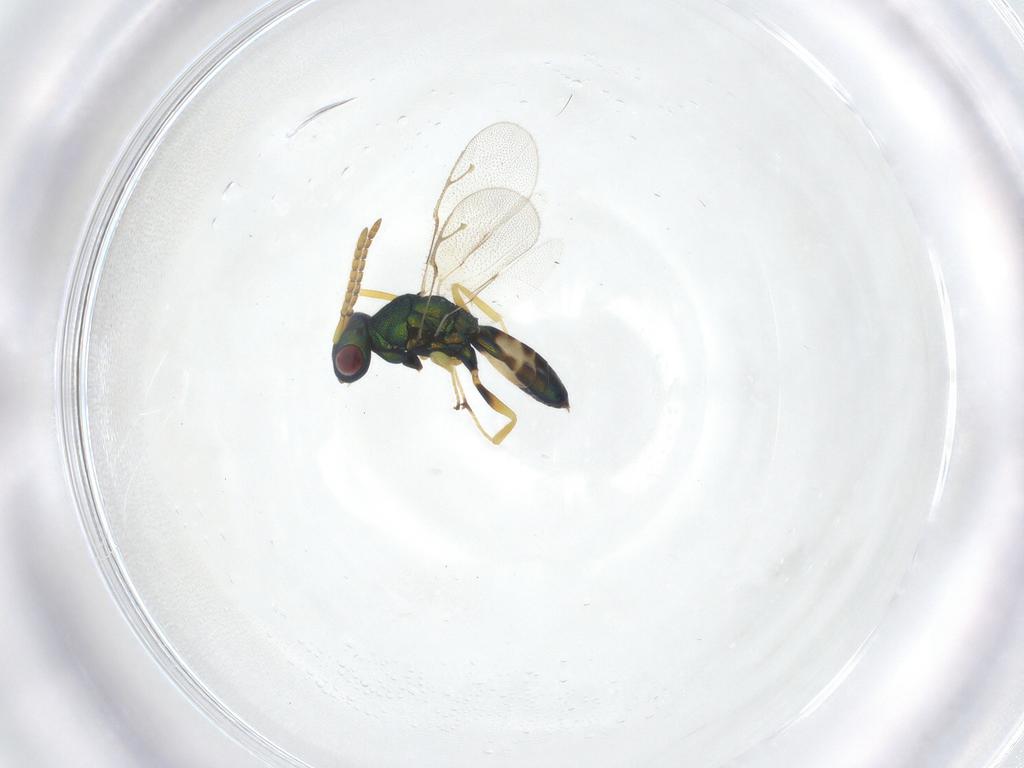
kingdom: Animalia
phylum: Arthropoda
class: Insecta
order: Hymenoptera
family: Pteromalidae
